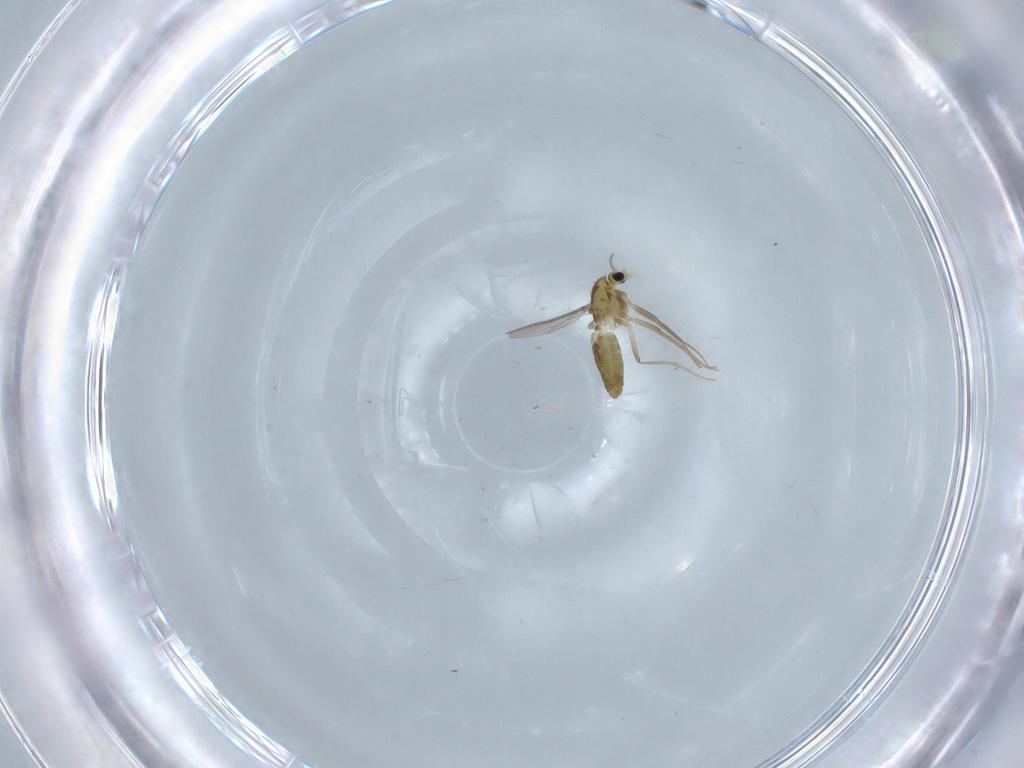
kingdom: Animalia
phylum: Arthropoda
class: Insecta
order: Diptera
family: Chironomidae
